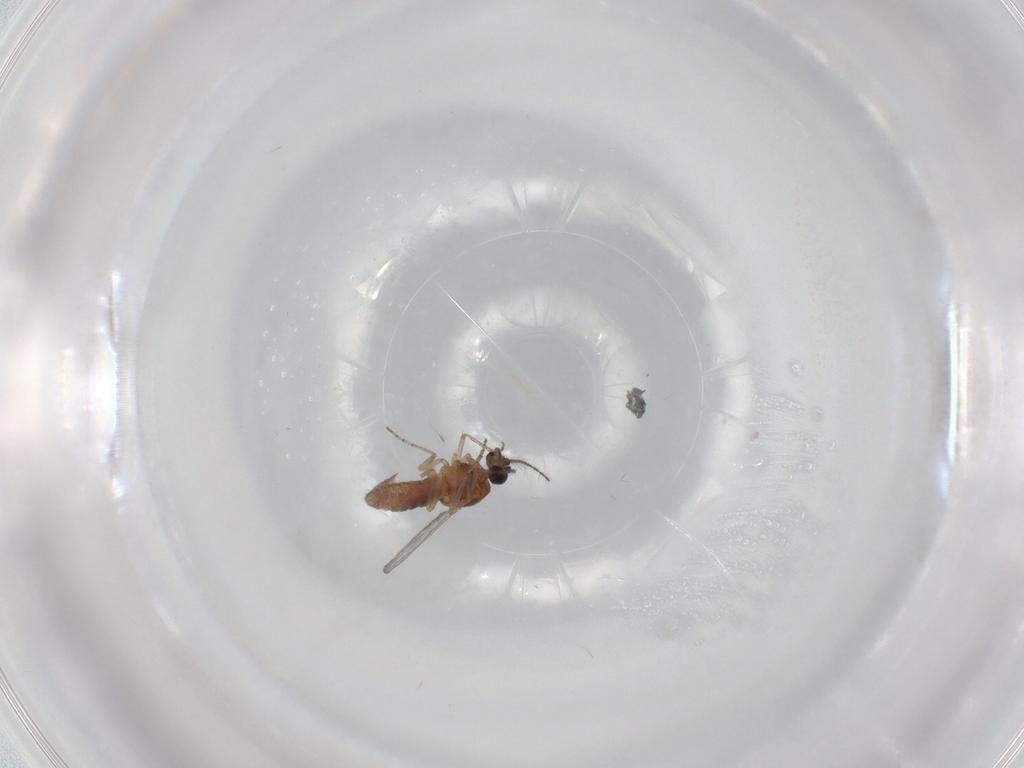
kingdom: Animalia
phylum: Arthropoda
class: Insecta
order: Diptera
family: Ceratopogonidae
